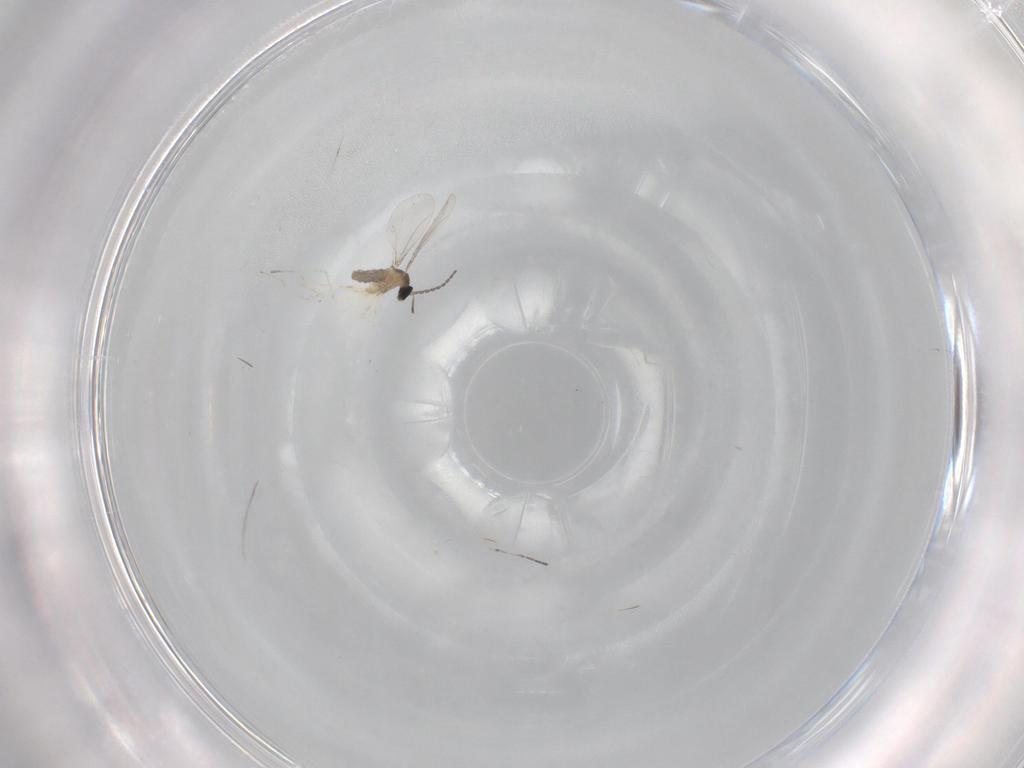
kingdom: Animalia
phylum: Arthropoda
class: Insecta
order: Diptera
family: Cecidomyiidae
